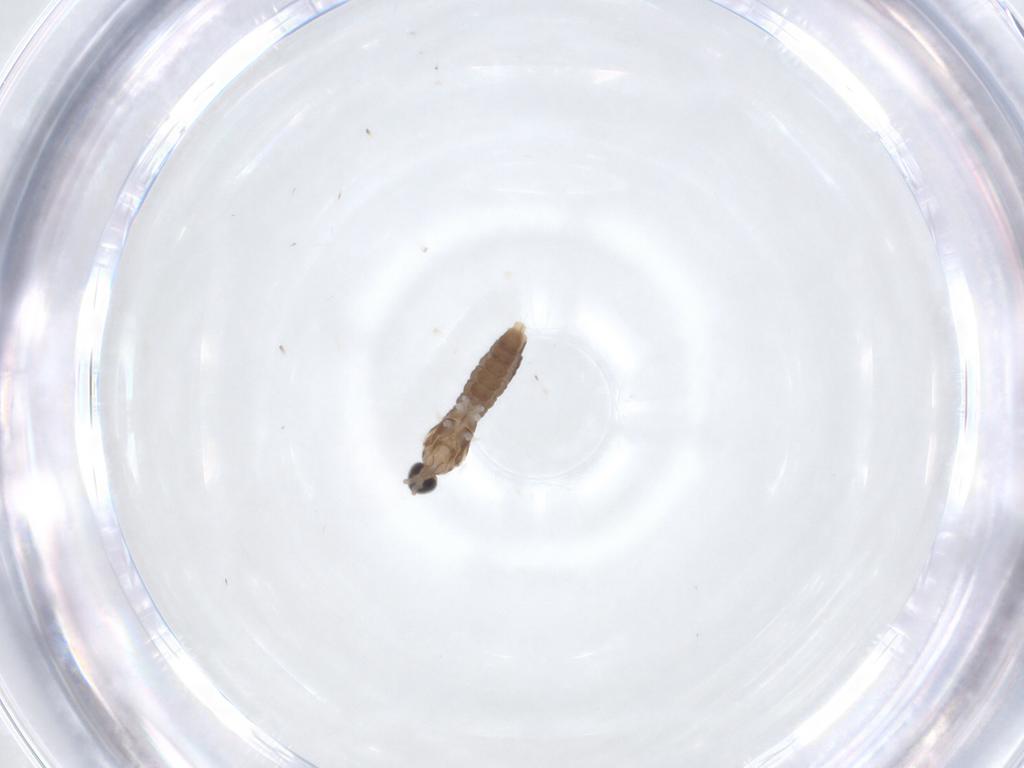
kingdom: Animalia
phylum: Arthropoda
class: Insecta
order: Diptera
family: Cecidomyiidae
